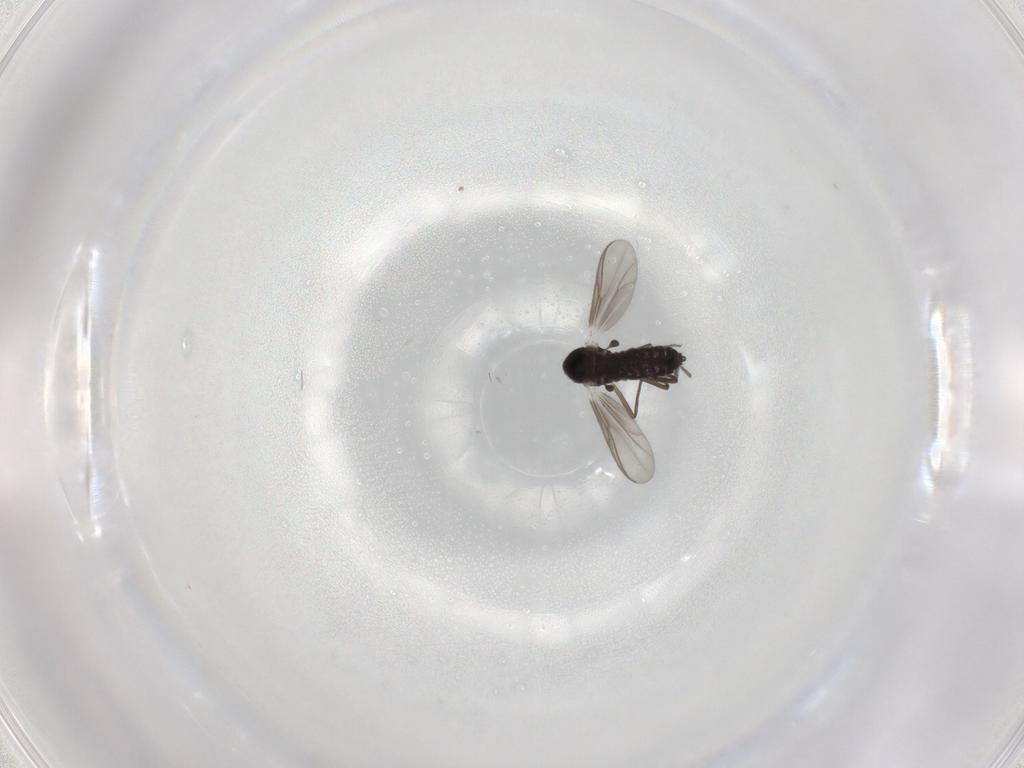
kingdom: Animalia
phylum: Arthropoda
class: Insecta
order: Diptera
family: Chironomidae
